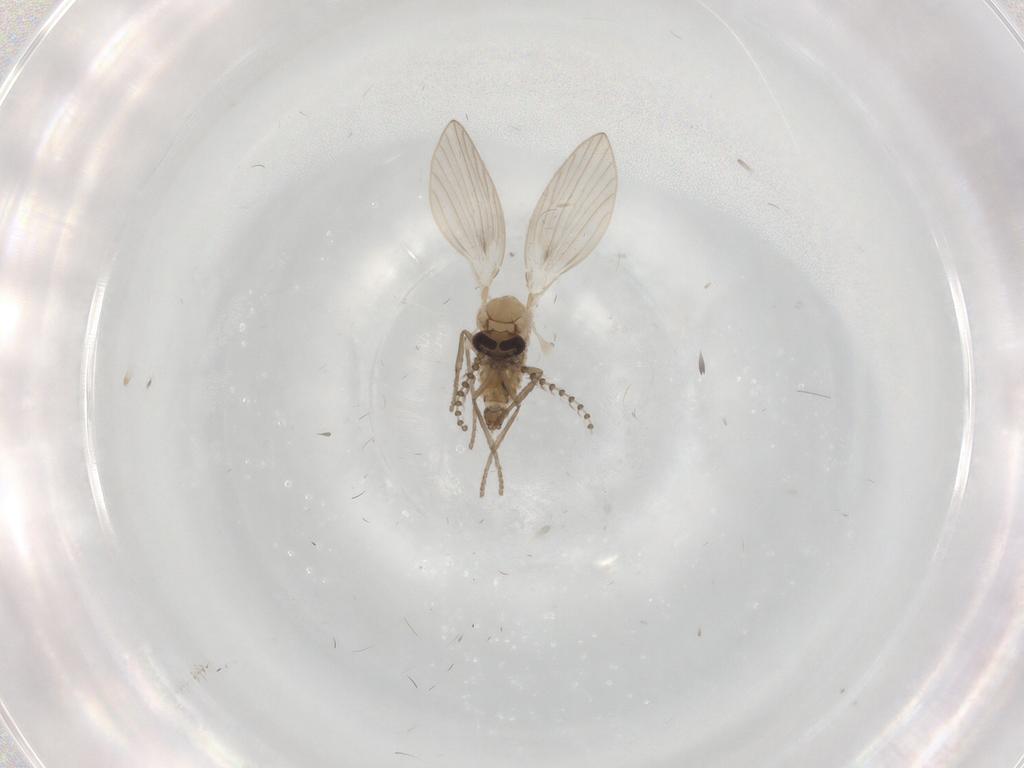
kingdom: Animalia
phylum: Arthropoda
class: Insecta
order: Diptera
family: Psychodidae
